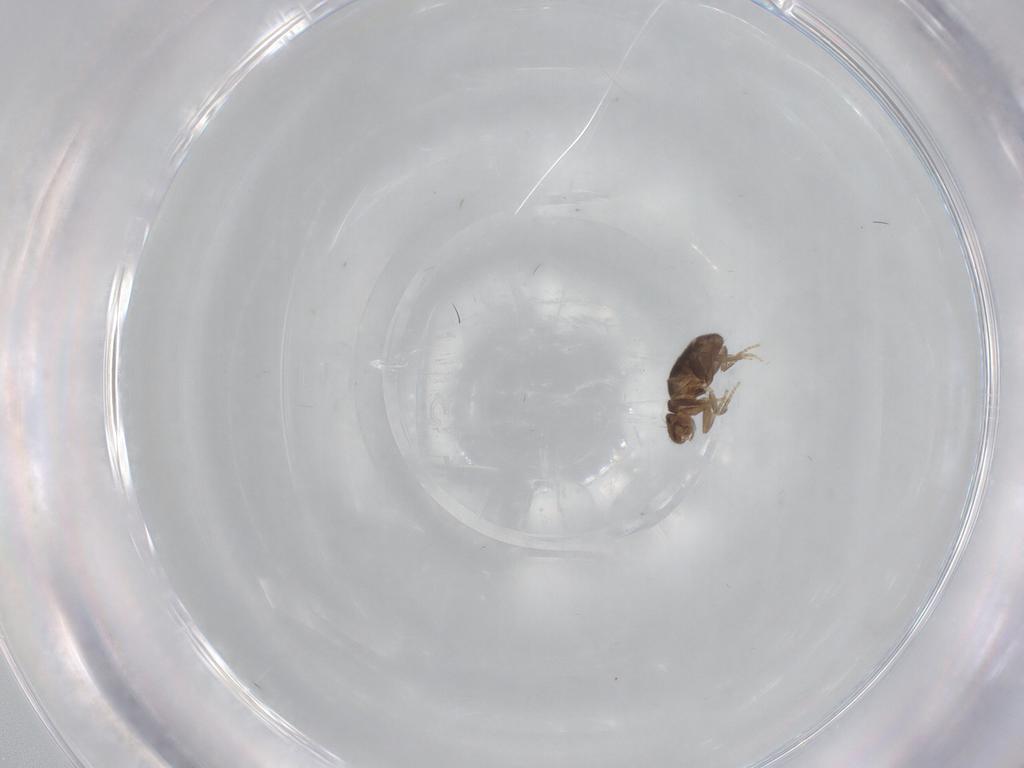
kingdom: Animalia
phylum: Arthropoda
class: Insecta
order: Diptera
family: Phoridae
